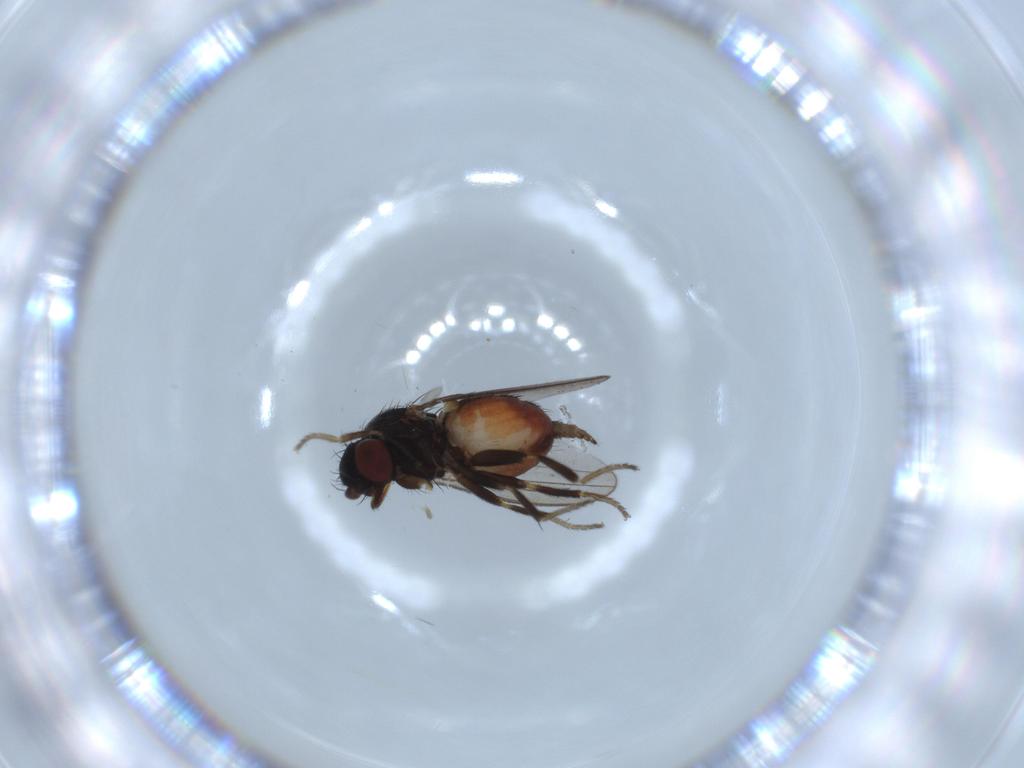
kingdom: Animalia
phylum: Arthropoda
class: Insecta
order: Diptera
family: Milichiidae
